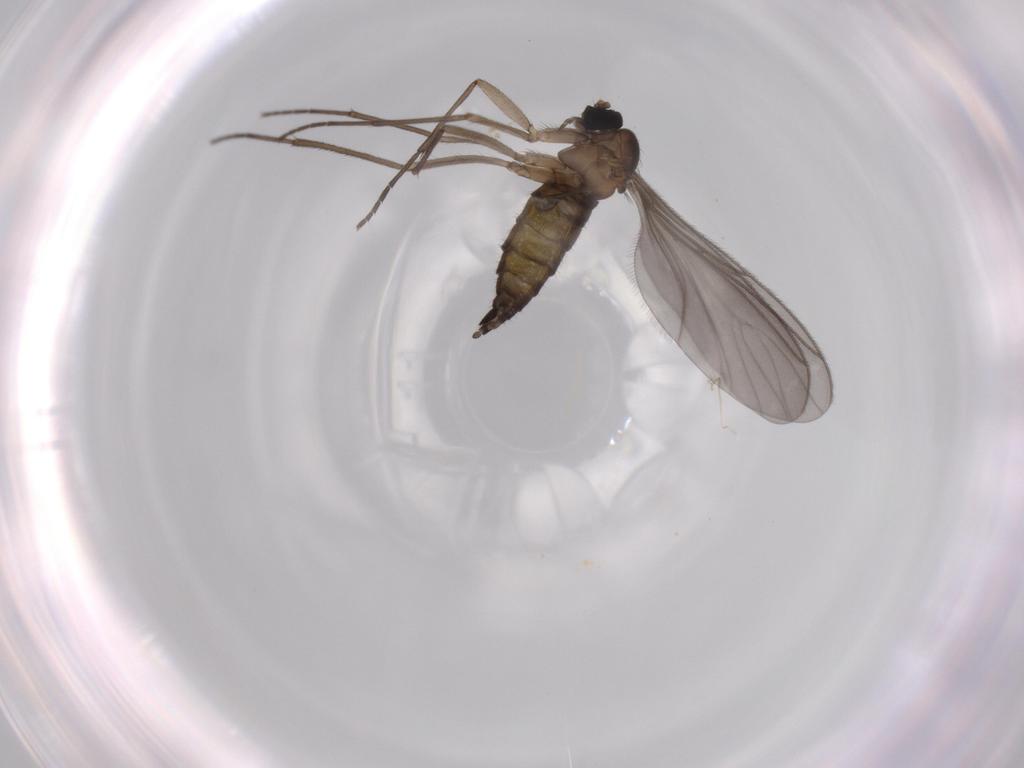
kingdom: Animalia
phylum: Arthropoda
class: Insecta
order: Diptera
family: Sciaridae
